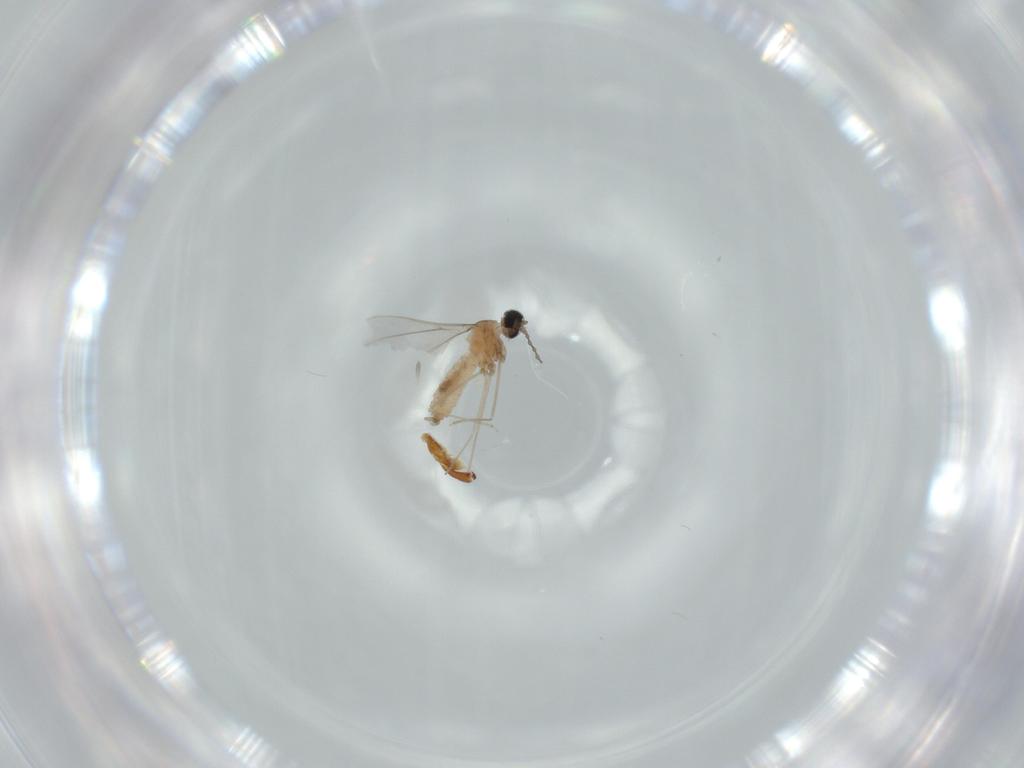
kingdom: Animalia
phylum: Arthropoda
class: Insecta
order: Diptera
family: Cecidomyiidae
